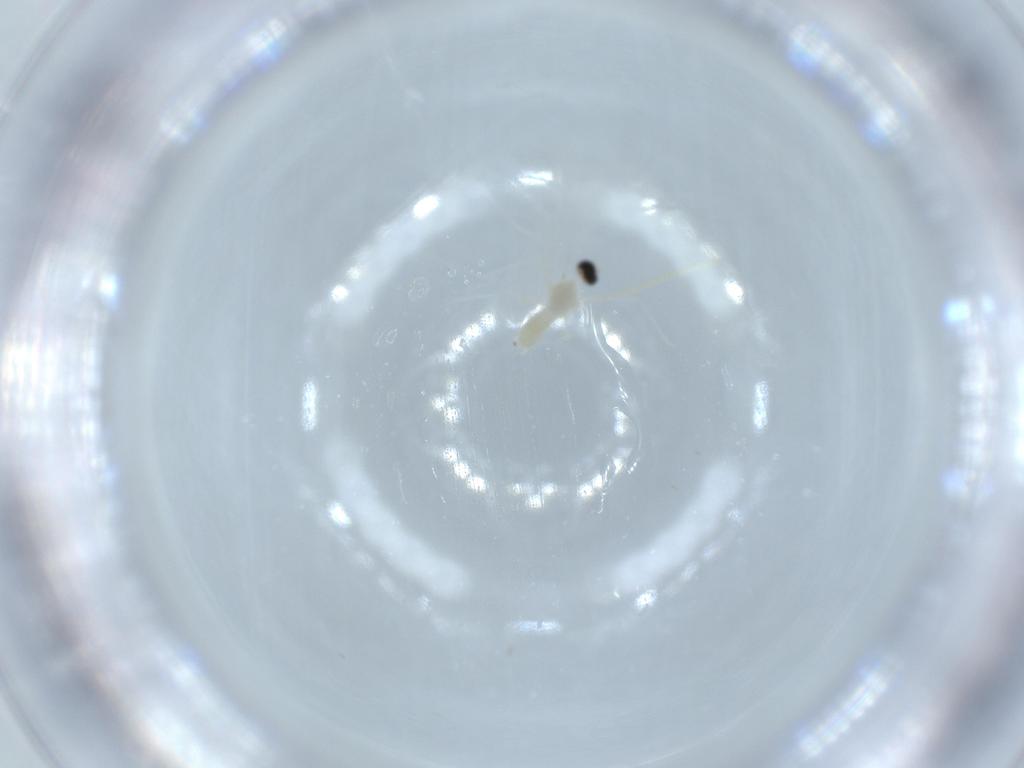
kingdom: Animalia
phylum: Arthropoda
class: Insecta
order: Diptera
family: Cecidomyiidae
